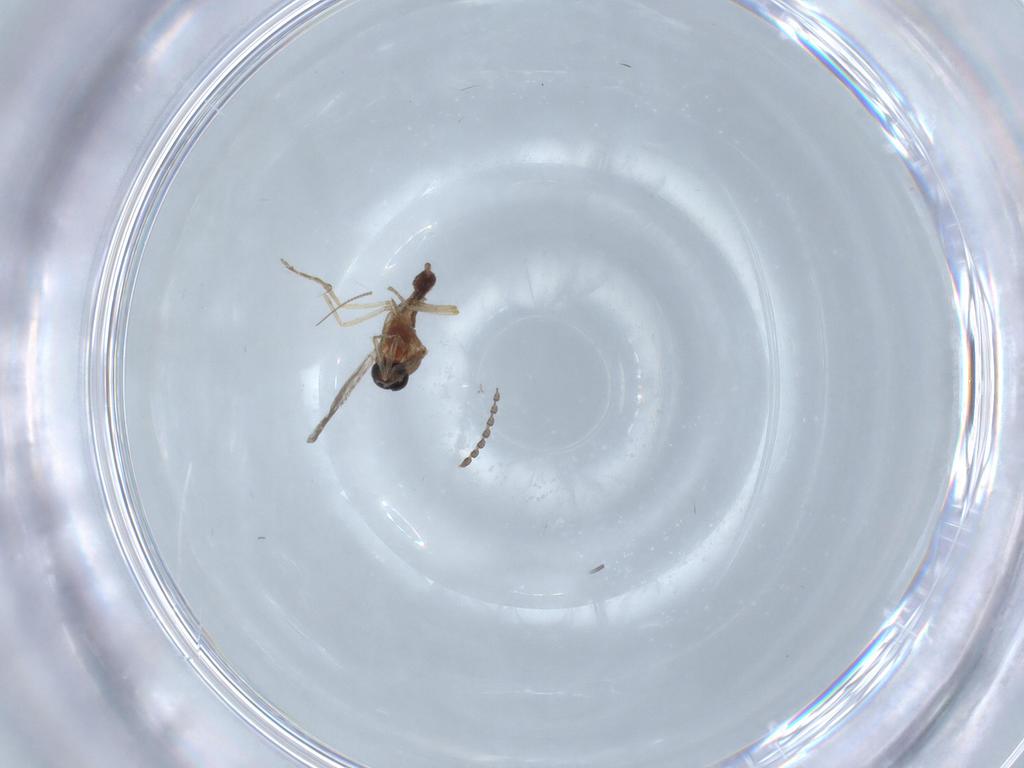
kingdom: Animalia
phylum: Arthropoda
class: Insecta
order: Diptera
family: Ceratopogonidae
